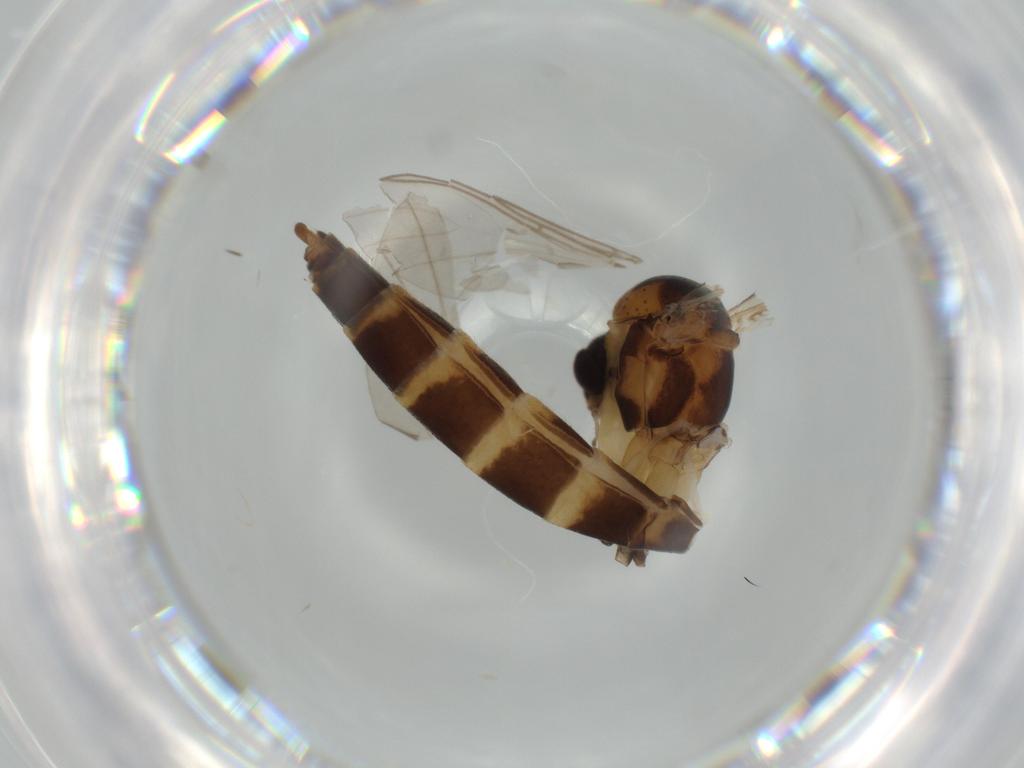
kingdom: Animalia
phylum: Arthropoda
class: Insecta
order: Diptera
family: Mycetophilidae
